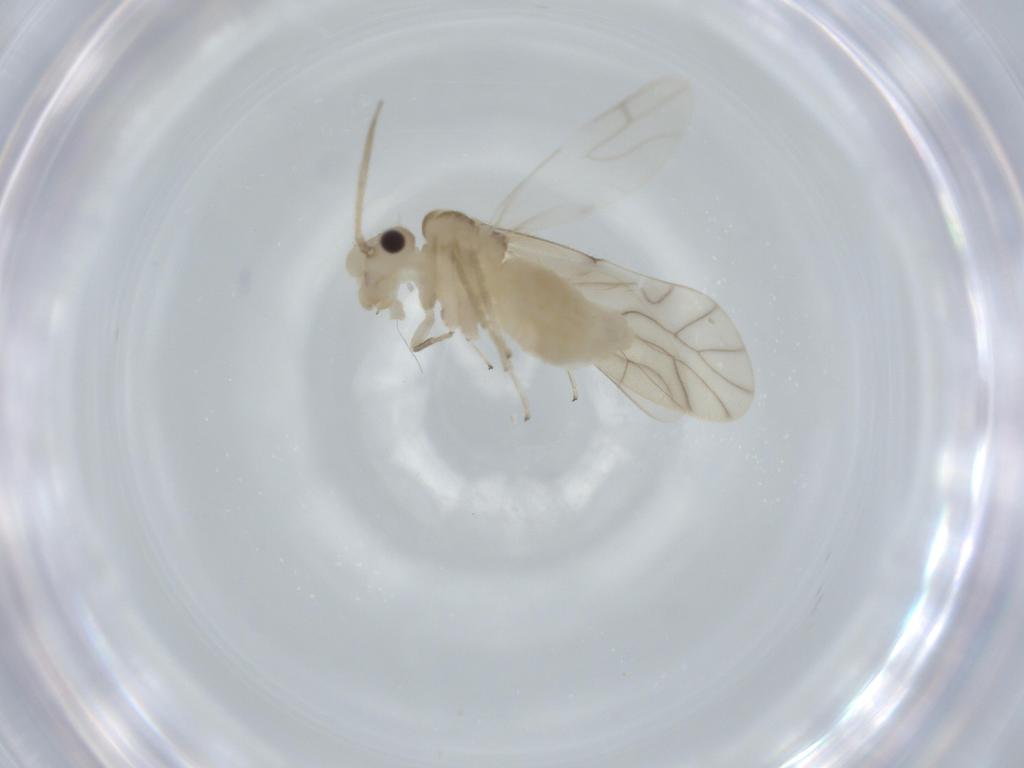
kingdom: Animalia
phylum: Arthropoda
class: Insecta
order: Psocodea
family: Caeciliusidae
